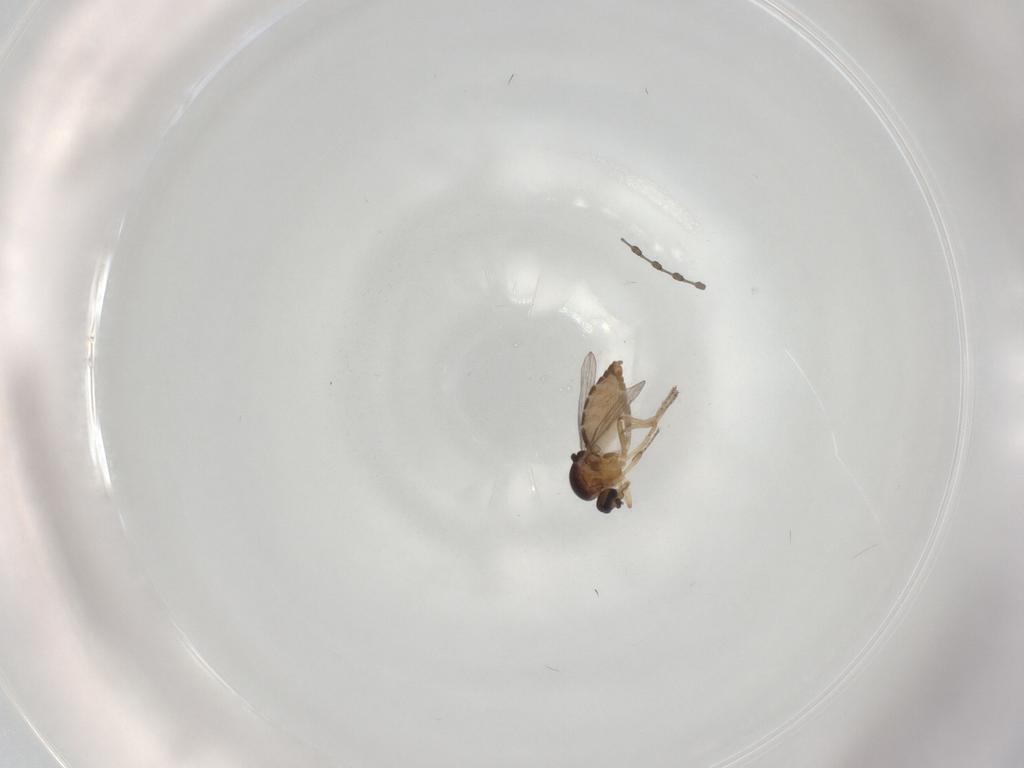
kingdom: Animalia
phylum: Arthropoda
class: Insecta
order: Diptera
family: Cecidomyiidae
